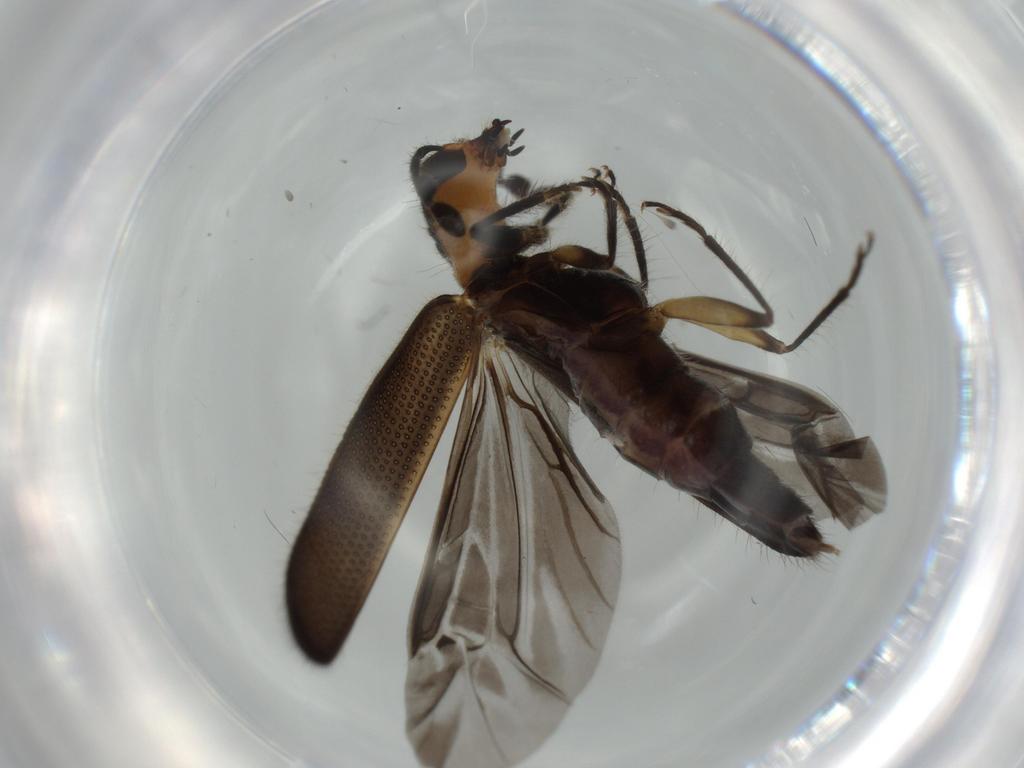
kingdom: Animalia
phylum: Arthropoda
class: Insecta
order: Coleoptera
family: Cleridae
